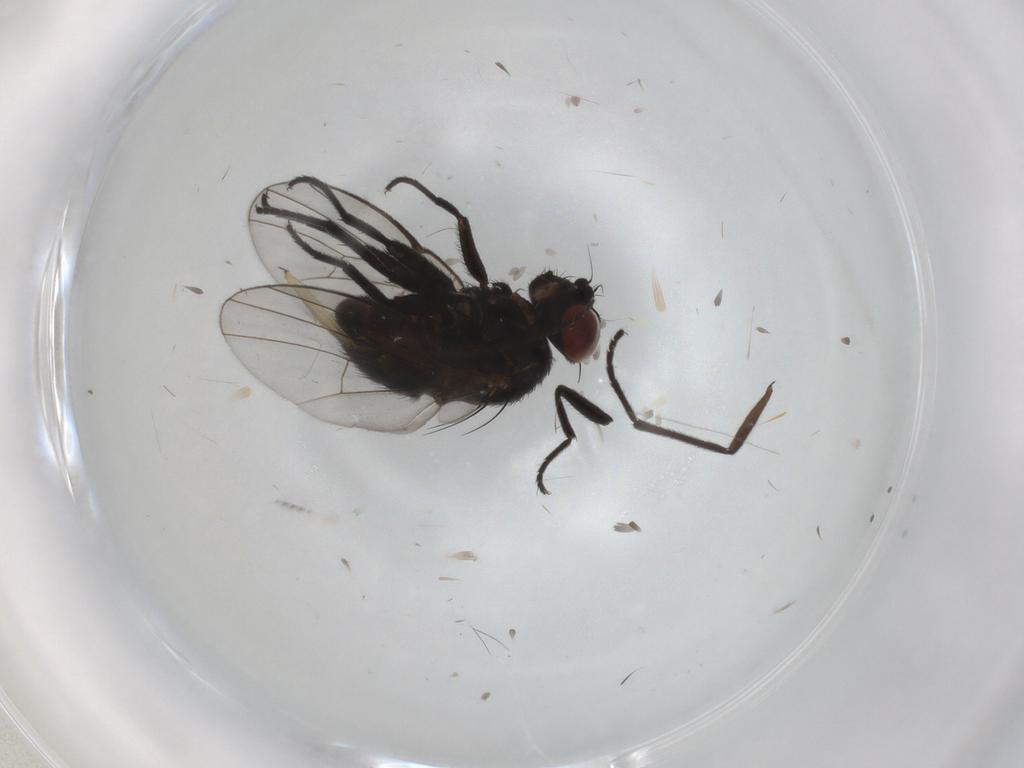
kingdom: Animalia
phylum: Arthropoda
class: Insecta
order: Diptera
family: Agromyzidae
